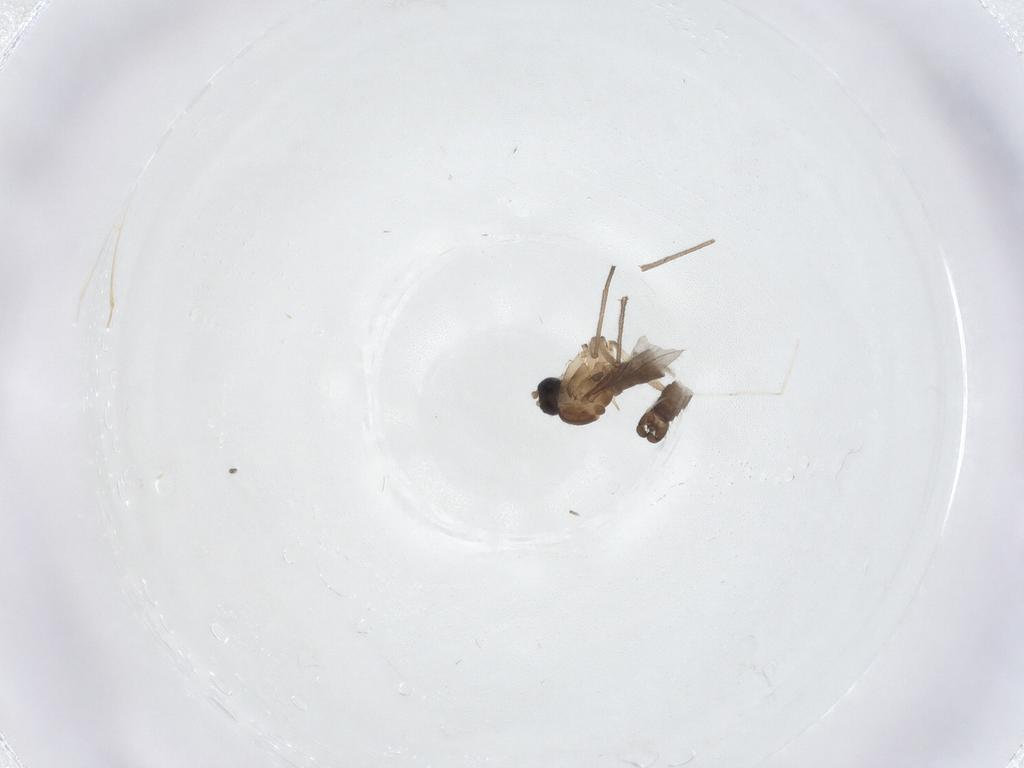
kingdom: Animalia
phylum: Arthropoda
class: Insecta
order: Diptera
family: Sciaridae
